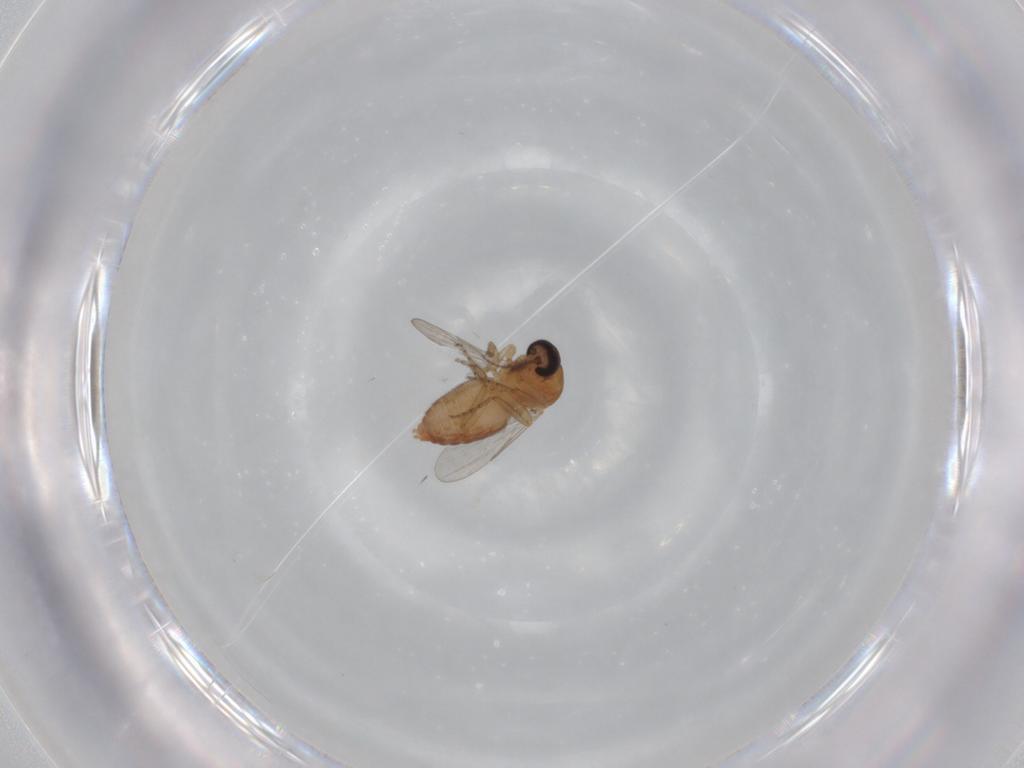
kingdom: Animalia
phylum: Arthropoda
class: Insecta
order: Diptera
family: Ceratopogonidae
